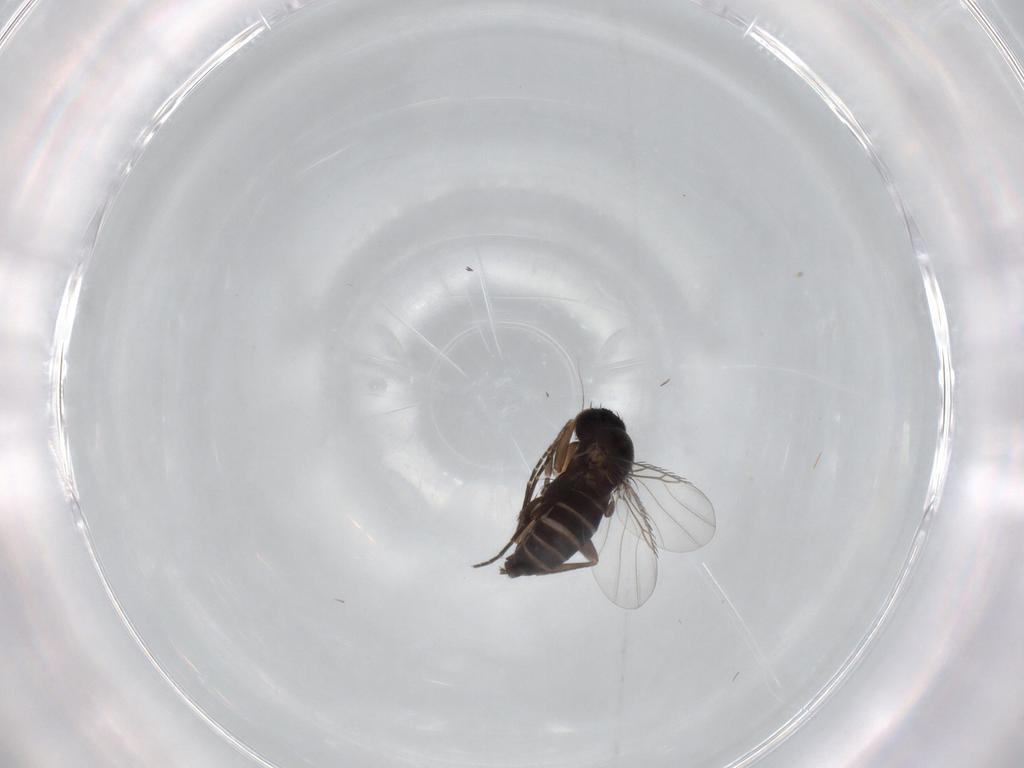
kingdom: Animalia
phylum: Arthropoda
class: Insecta
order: Diptera
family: Phoridae
